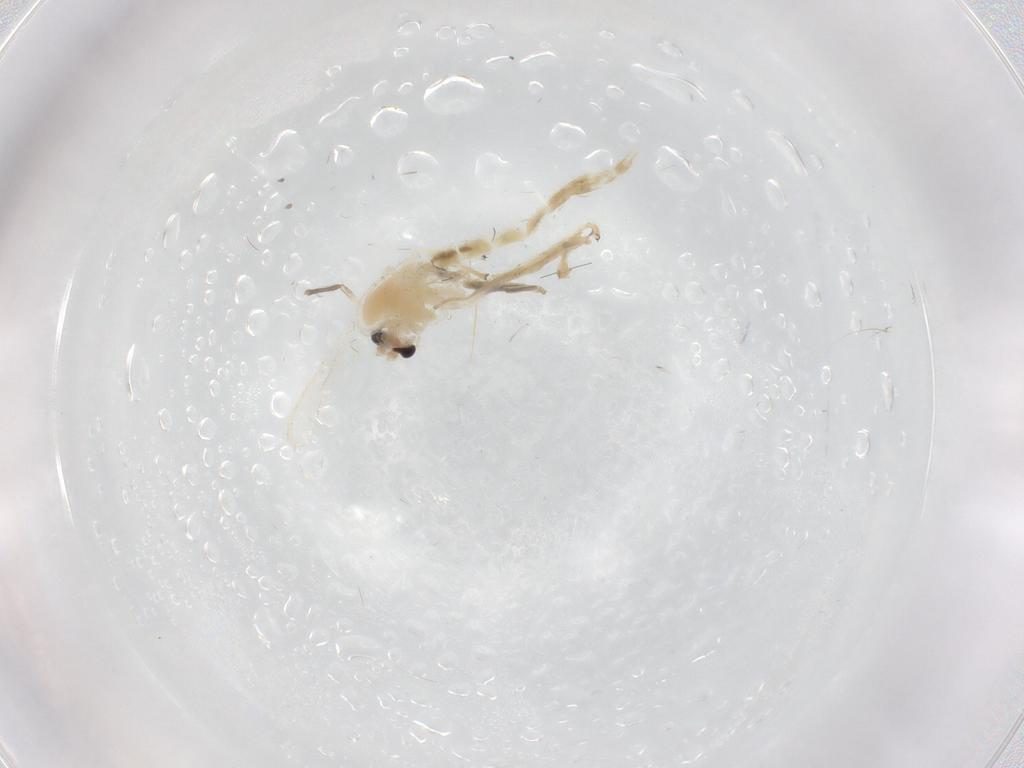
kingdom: Animalia
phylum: Arthropoda
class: Insecta
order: Diptera
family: Chironomidae
